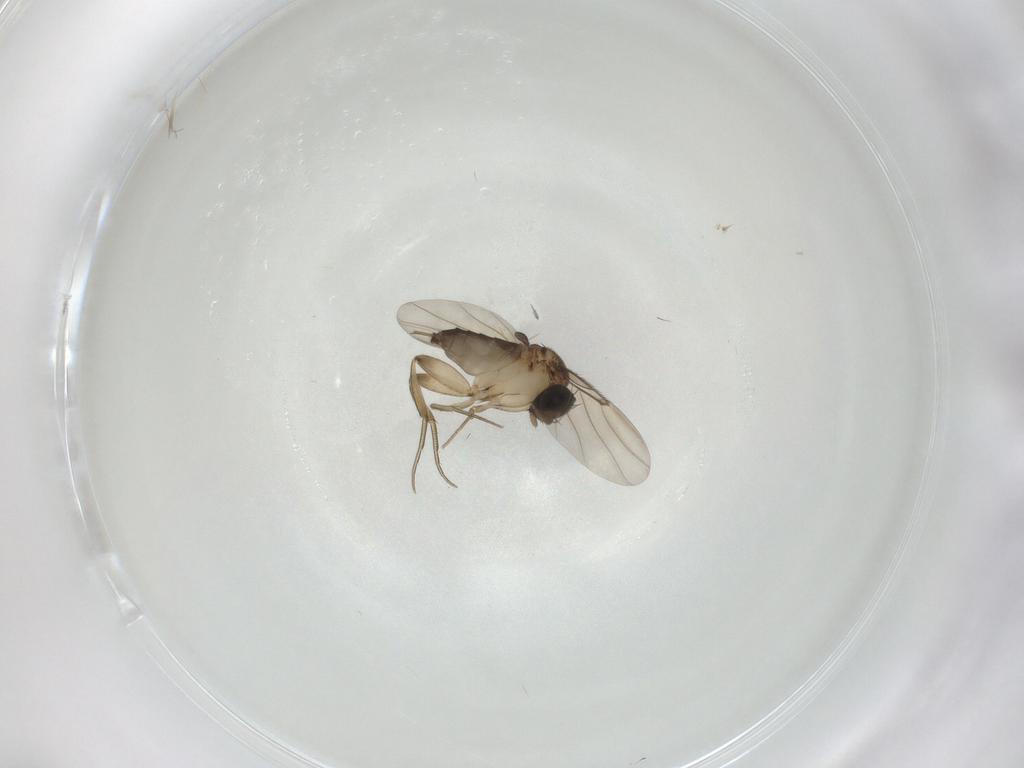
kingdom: Animalia
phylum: Arthropoda
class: Insecta
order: Diptera
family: Phoridae
